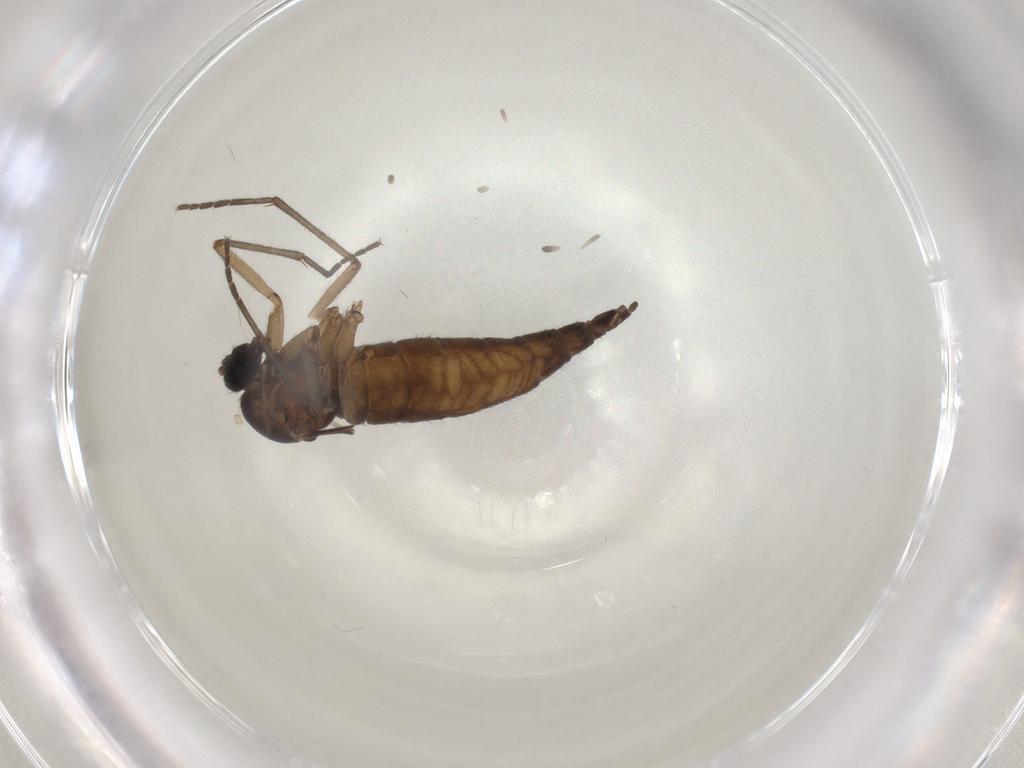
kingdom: Animalia
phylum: Arthropoda
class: Insecta
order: Diptera
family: Sciaridae
